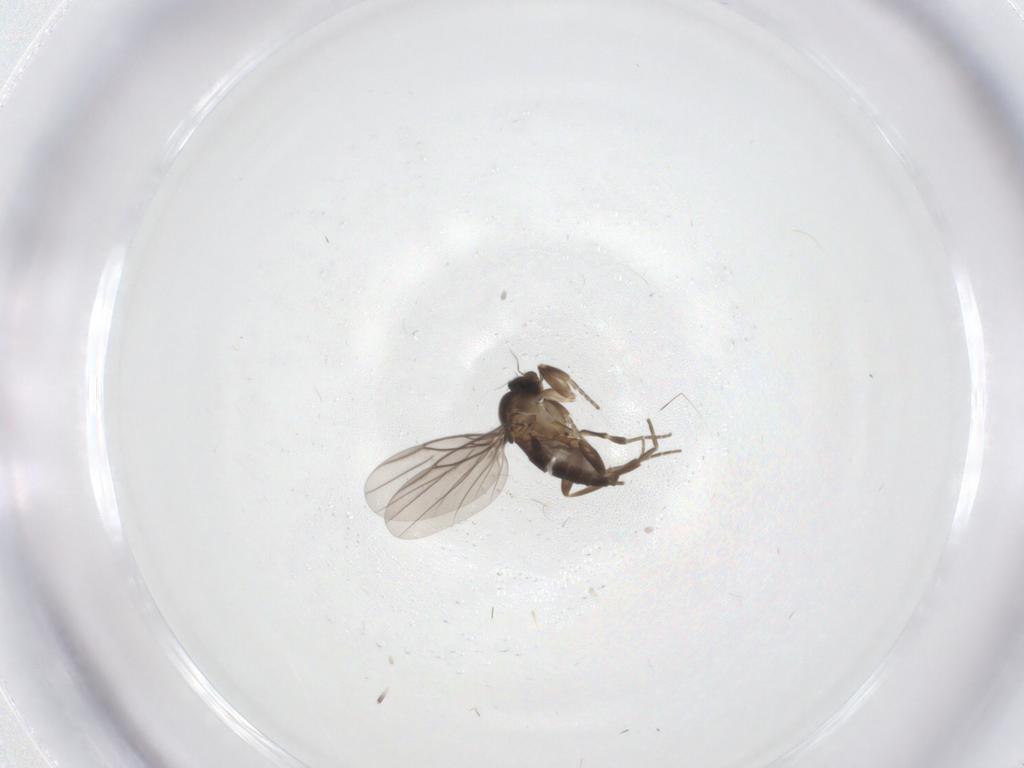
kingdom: Animalia
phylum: Arthropoda
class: Insecta
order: Diptera
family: Phoridae
